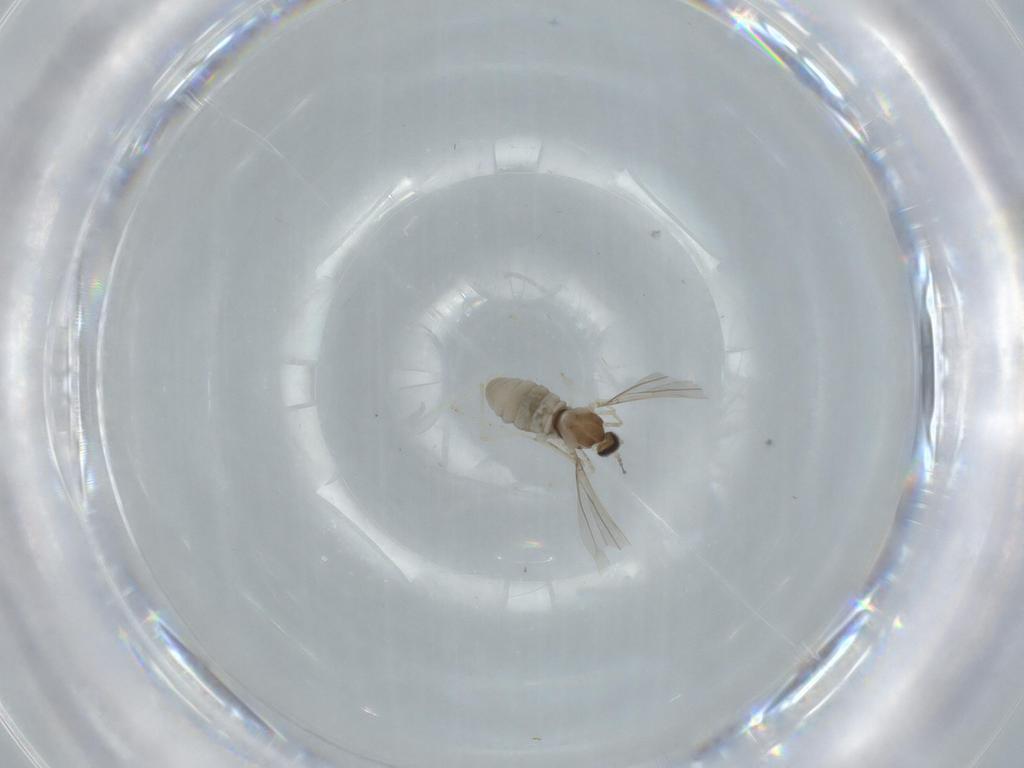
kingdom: Animalia
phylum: Arthropoda
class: Insecta
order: Diptera
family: Cecidomyiidae
